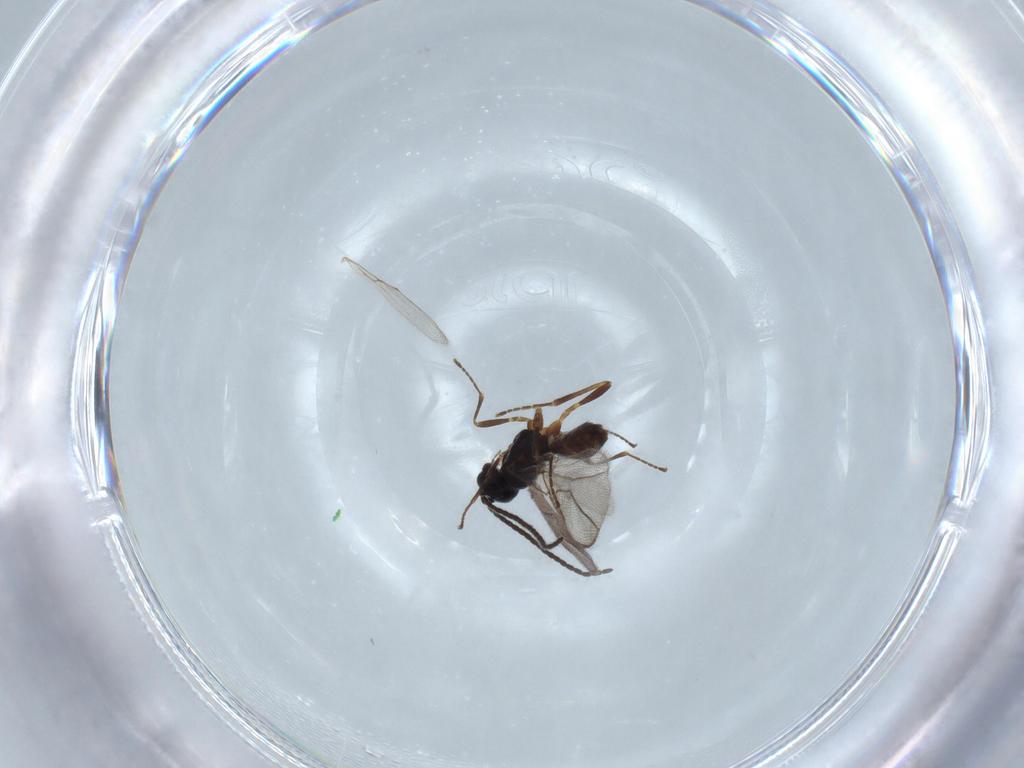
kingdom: Animalia
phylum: Arthropoda
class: Insecta
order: Hymenoptera
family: Braconidae
